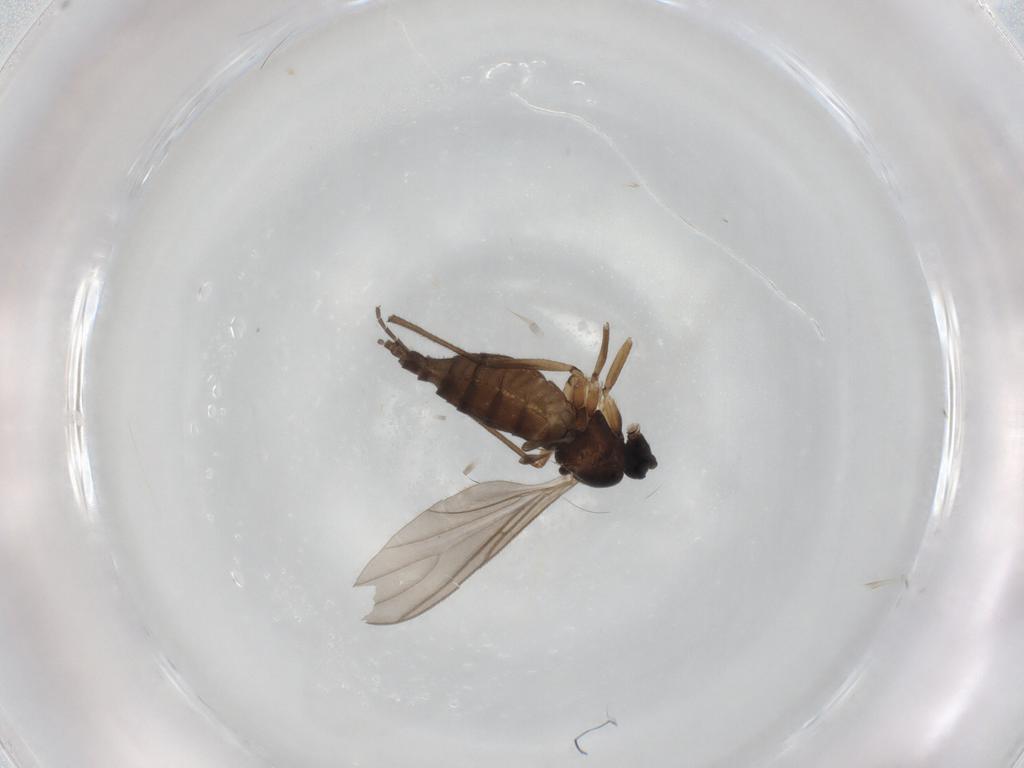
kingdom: Animalia
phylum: Arthropoda
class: Insecta
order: Diptera
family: Sciaridae
